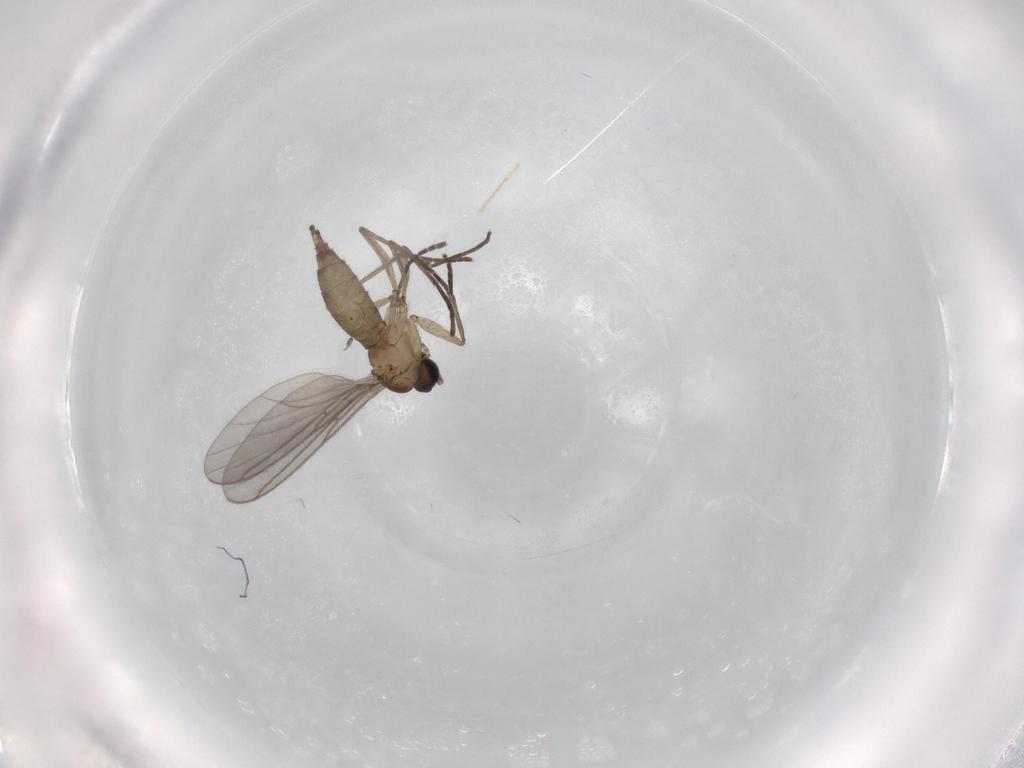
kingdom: Animalia
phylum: Arthropoda
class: Insecta
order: Diptera
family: Sciaridae
